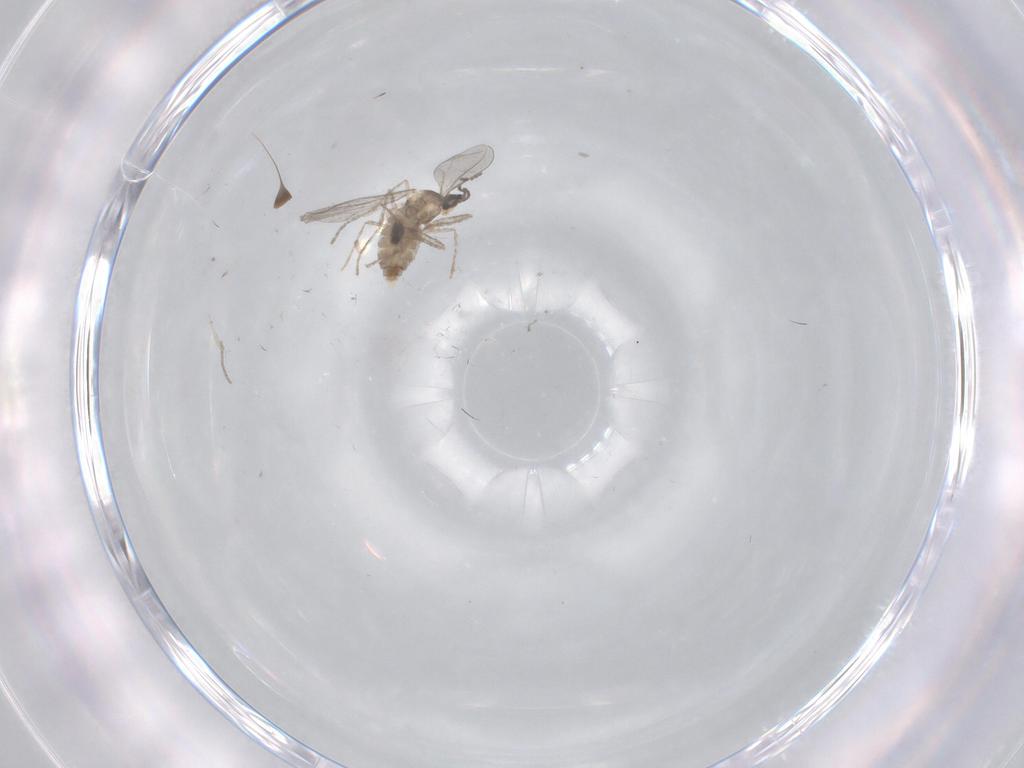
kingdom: Animalia
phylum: Arthropoda
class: Insecta
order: Diptera
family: Cecidomyiidae
